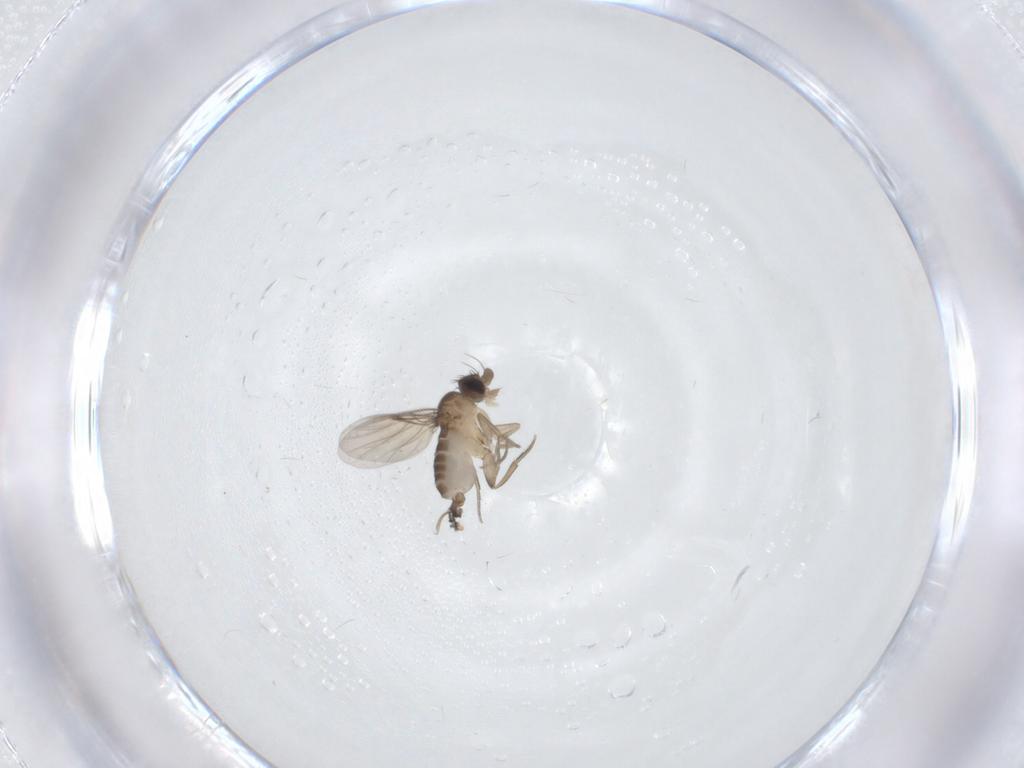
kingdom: Animalia
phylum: Arthropoda
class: Insecta
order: Diptera
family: Phoridae
